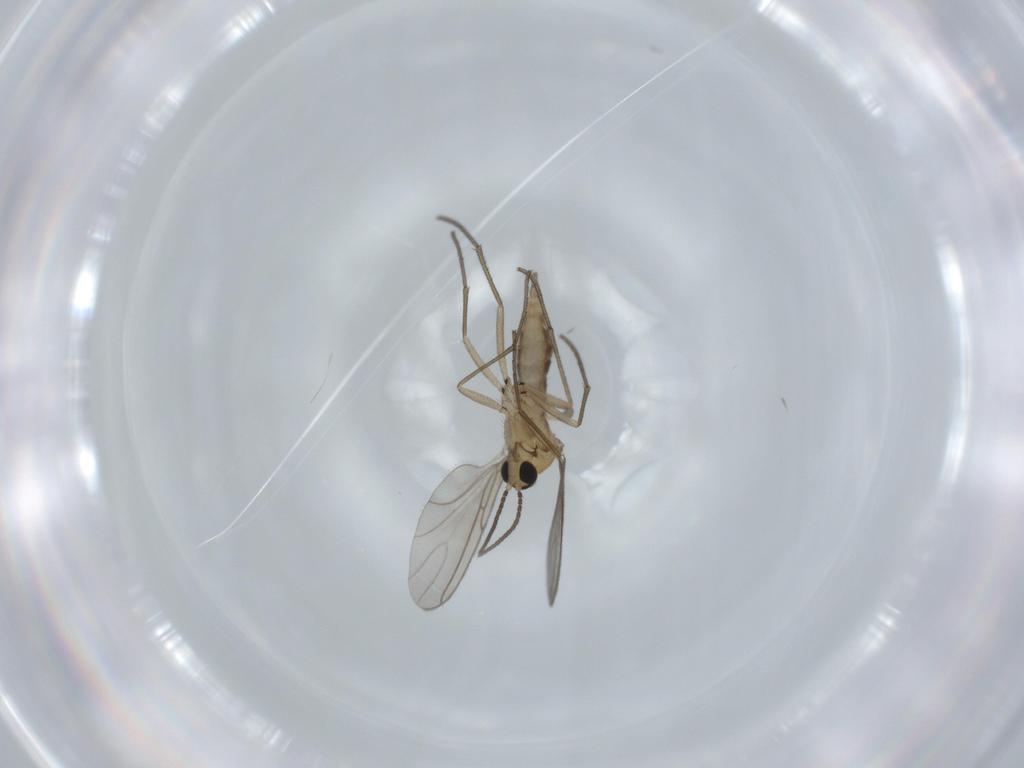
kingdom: Animalia
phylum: Arthropoda
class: Insecta
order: Diptera
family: Sciaridae
